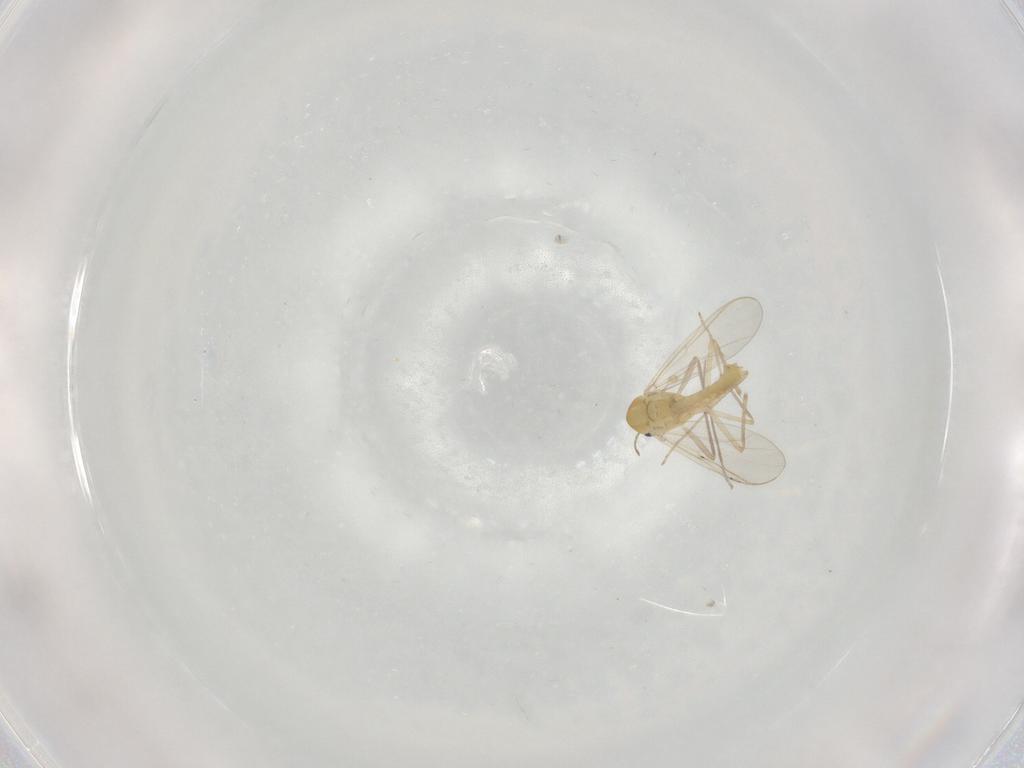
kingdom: Animalia
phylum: Arthropoda
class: Insecta
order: Diptera
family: Chironomidae
